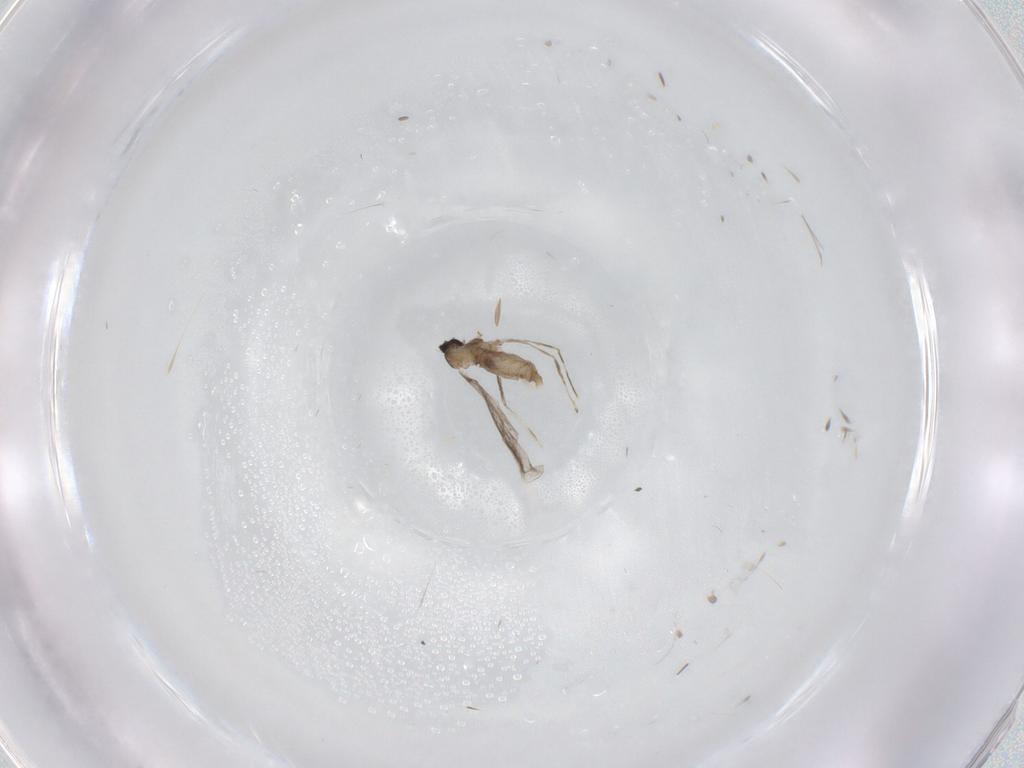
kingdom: Animalia
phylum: Arthropoda
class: Insecta
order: Diptera
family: Cecidomyiidae
